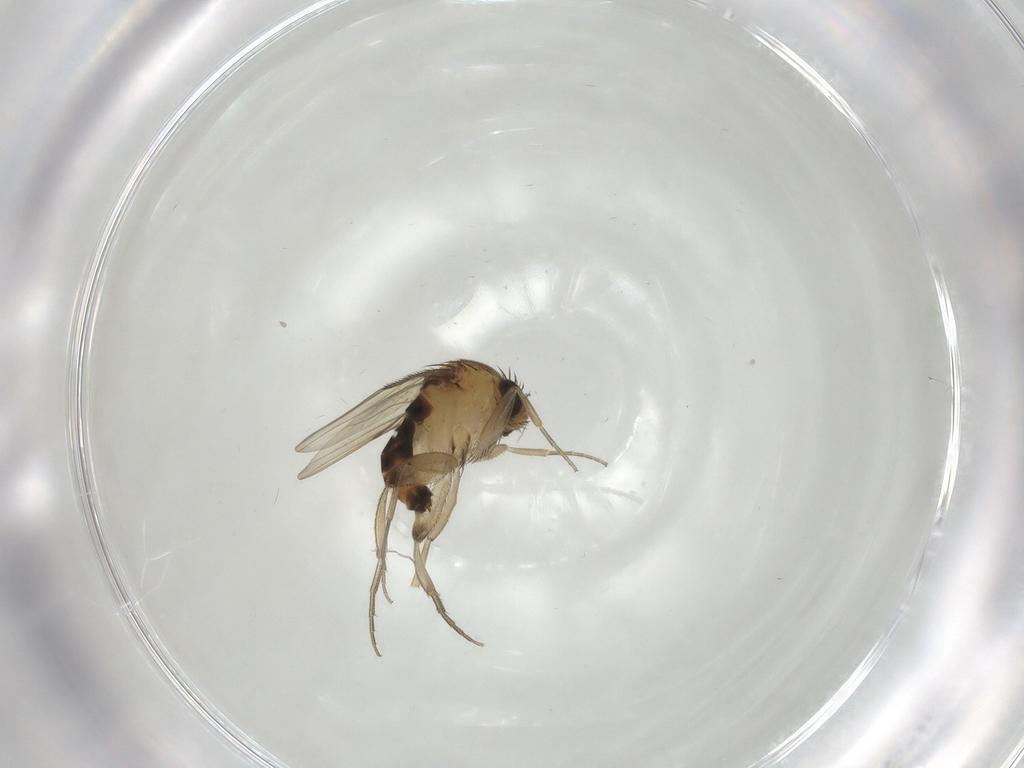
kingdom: Animalia
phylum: Arthropoda
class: Insecta
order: Diptera
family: Phoridae
